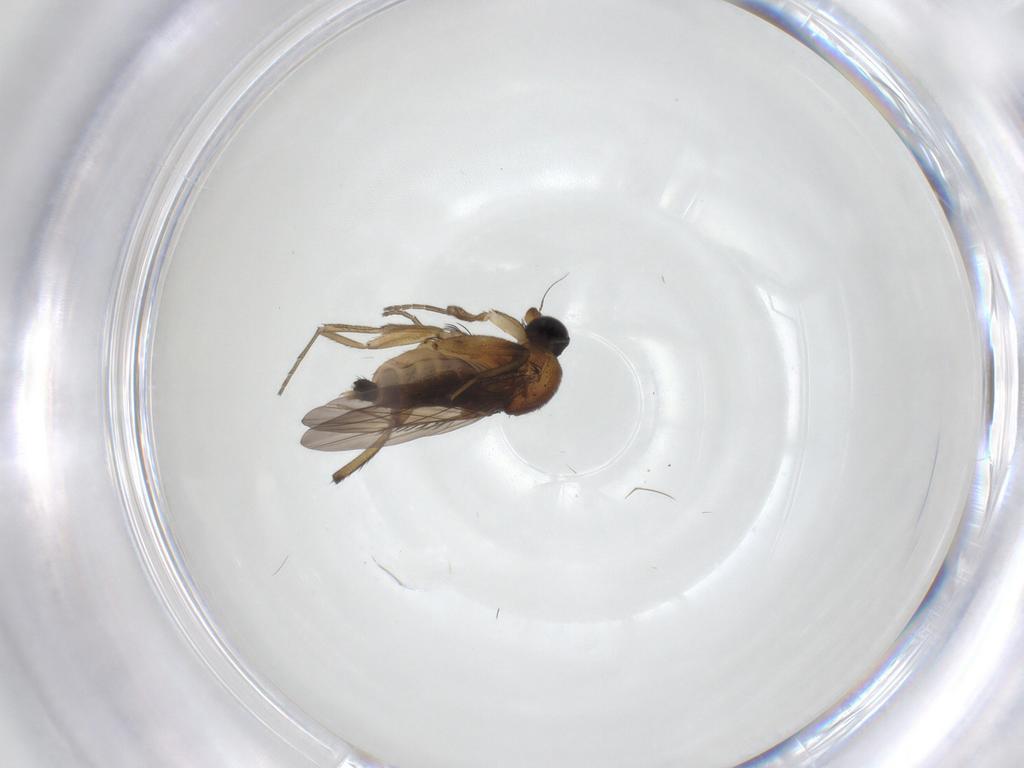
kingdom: Animalia
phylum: Arthropoda
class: Insecta
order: Diptera
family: Phoridae
